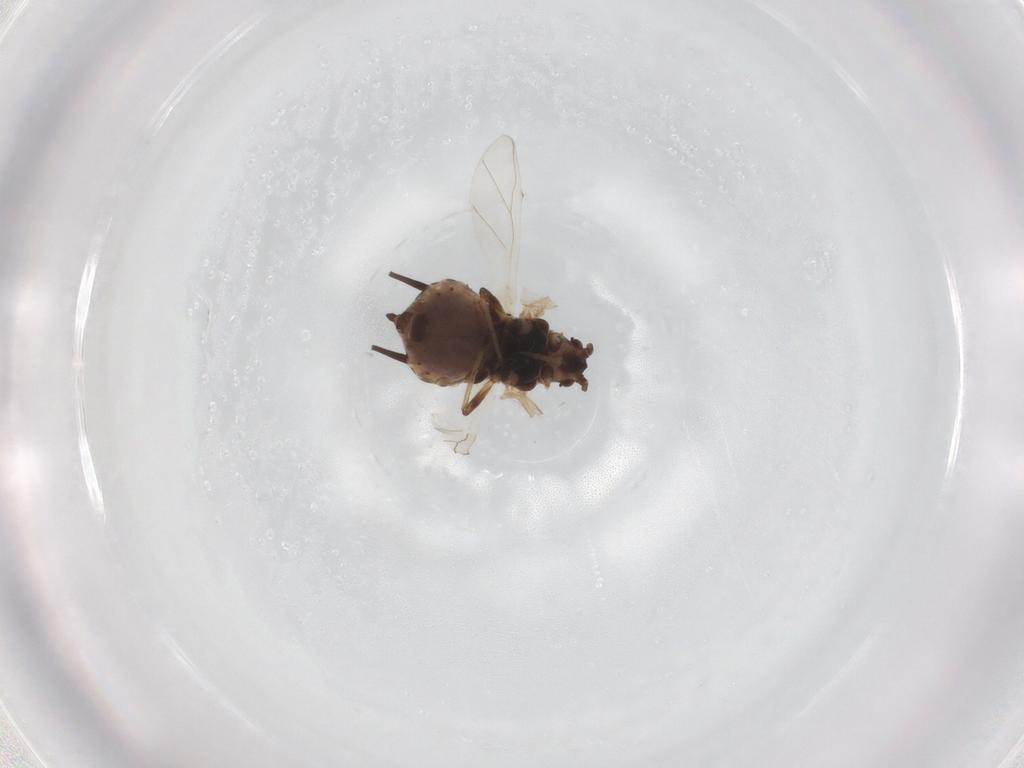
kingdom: Animalia
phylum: Arthropoda
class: Insecta
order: Hemiptera
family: Aphididae
